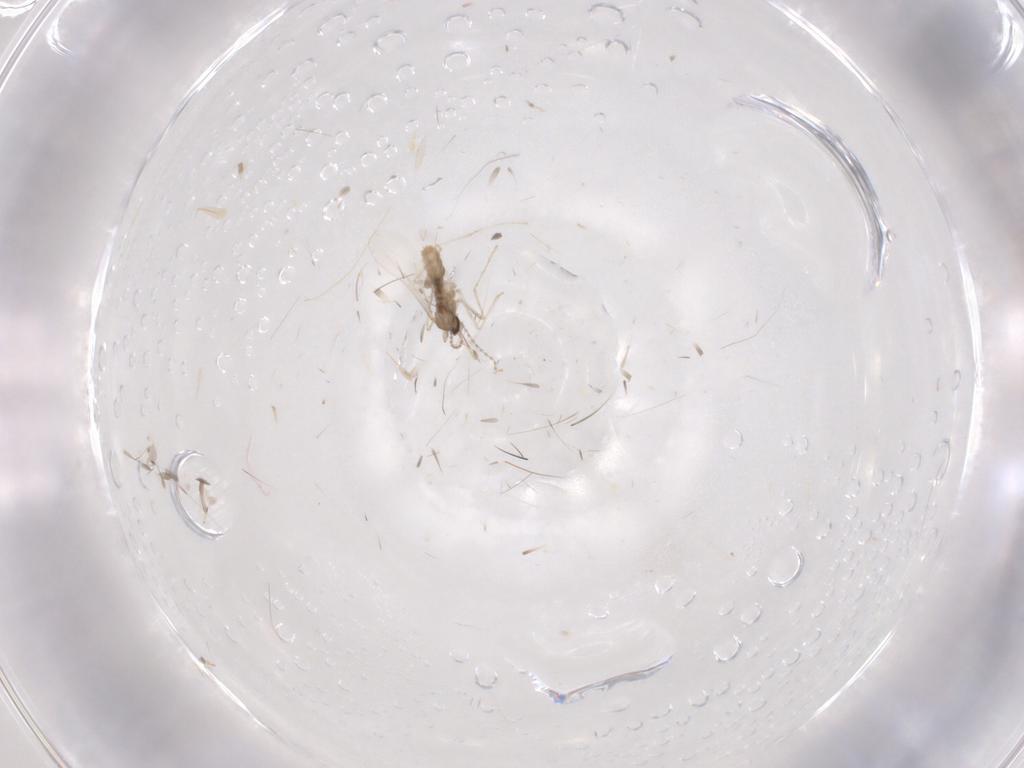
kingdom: Animalia
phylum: Arthropoda
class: Insecta
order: Diptera
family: Cecidomyiidae
